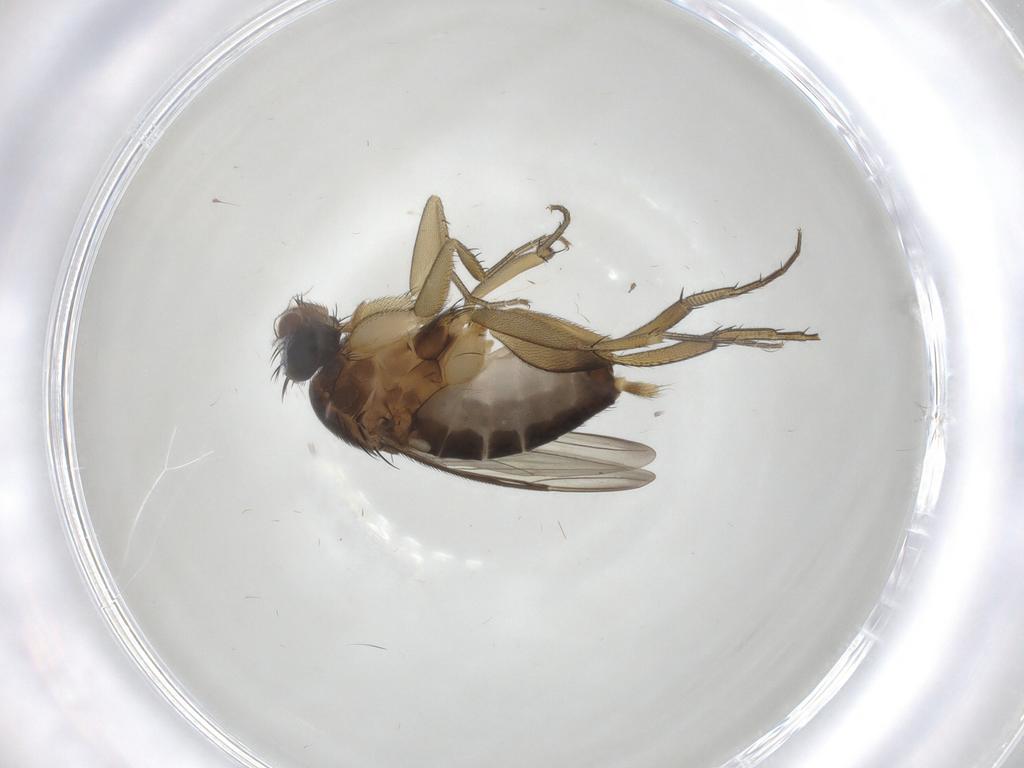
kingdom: Animalia
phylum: Arthropoda
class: Insecta
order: Diptera
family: Phoridae
